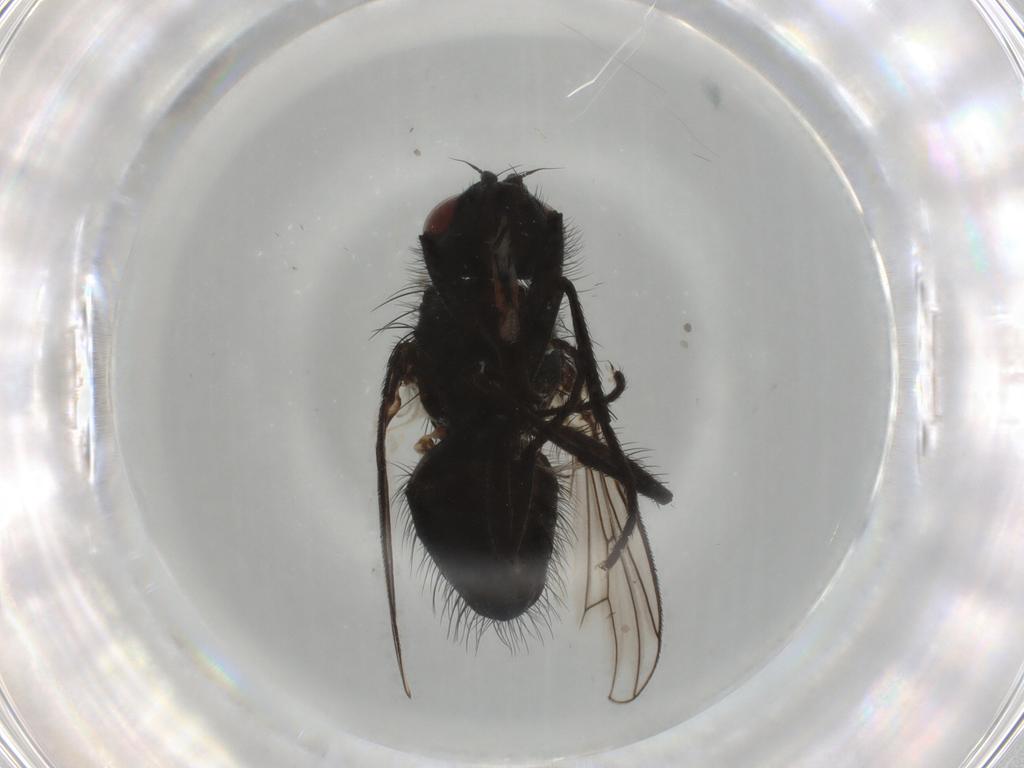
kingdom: Animalia
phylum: Arthropoda
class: Insecta
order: Diptera
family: Muscidae
